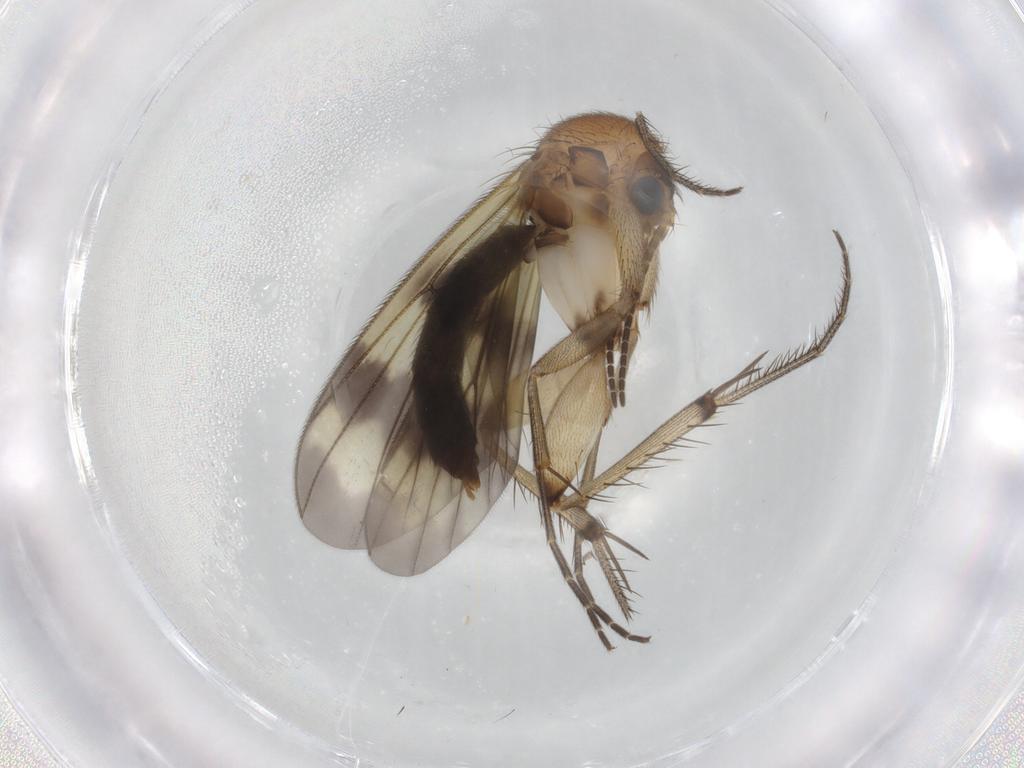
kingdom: Animalia
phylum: Arthropoda
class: Insecta
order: Diptera
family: Mycetophilidae
